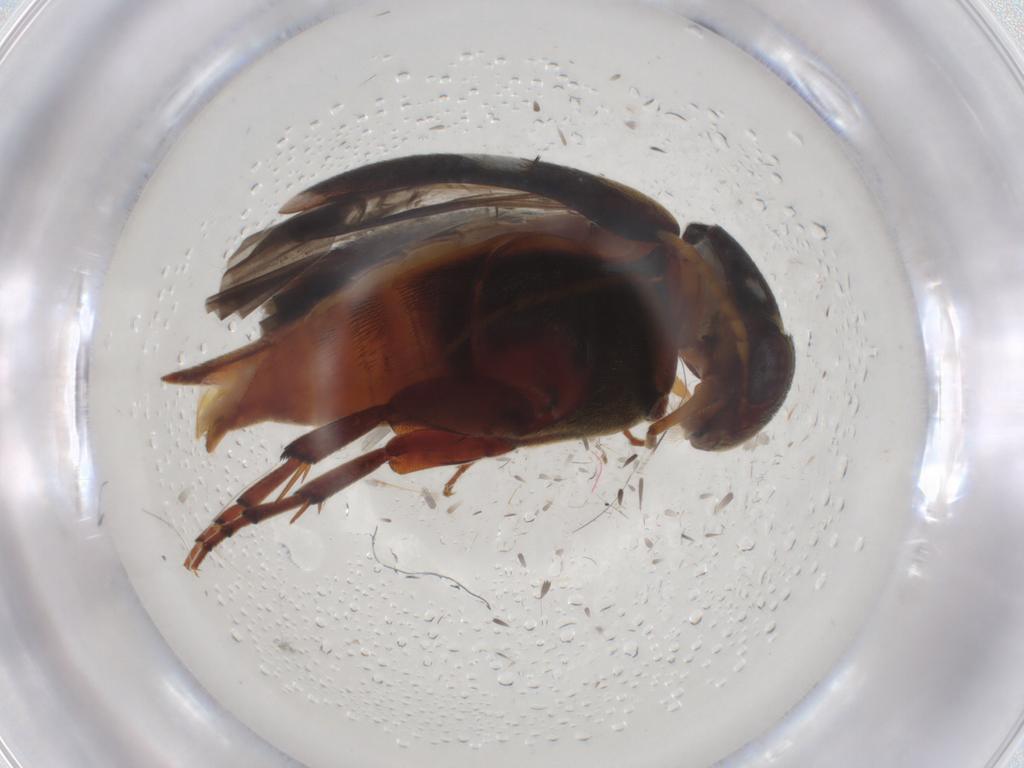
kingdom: Animalia
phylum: Arthropoda
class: Insecta
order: Coleoptera
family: Mordellidae
